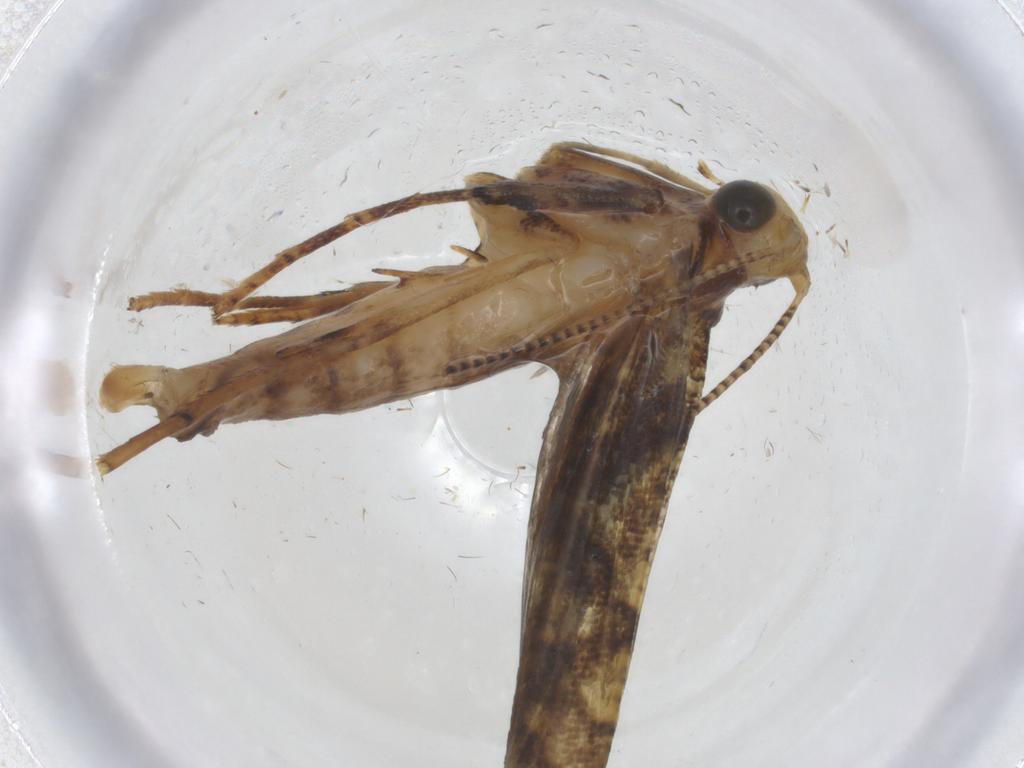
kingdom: Animalia
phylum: Arthropoda
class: Insecta
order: Lepidoptera
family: Gracillariidae
